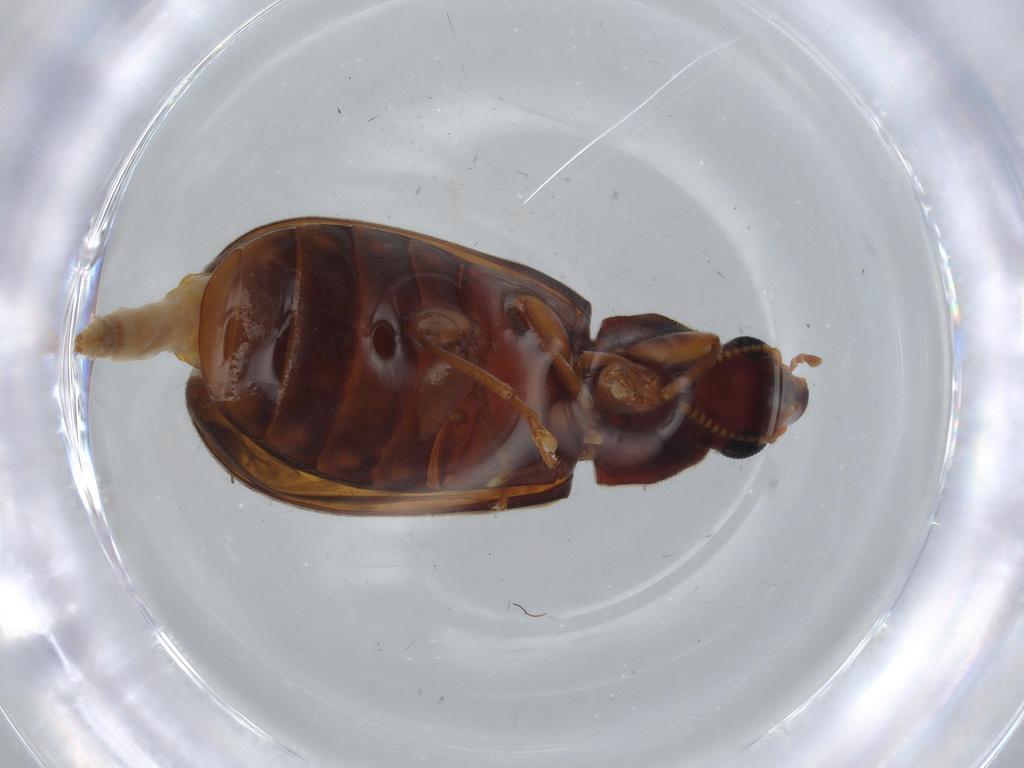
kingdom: Animalia
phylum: Arthropoda
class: Insecta
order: Coleoptera
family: Mycteridae
